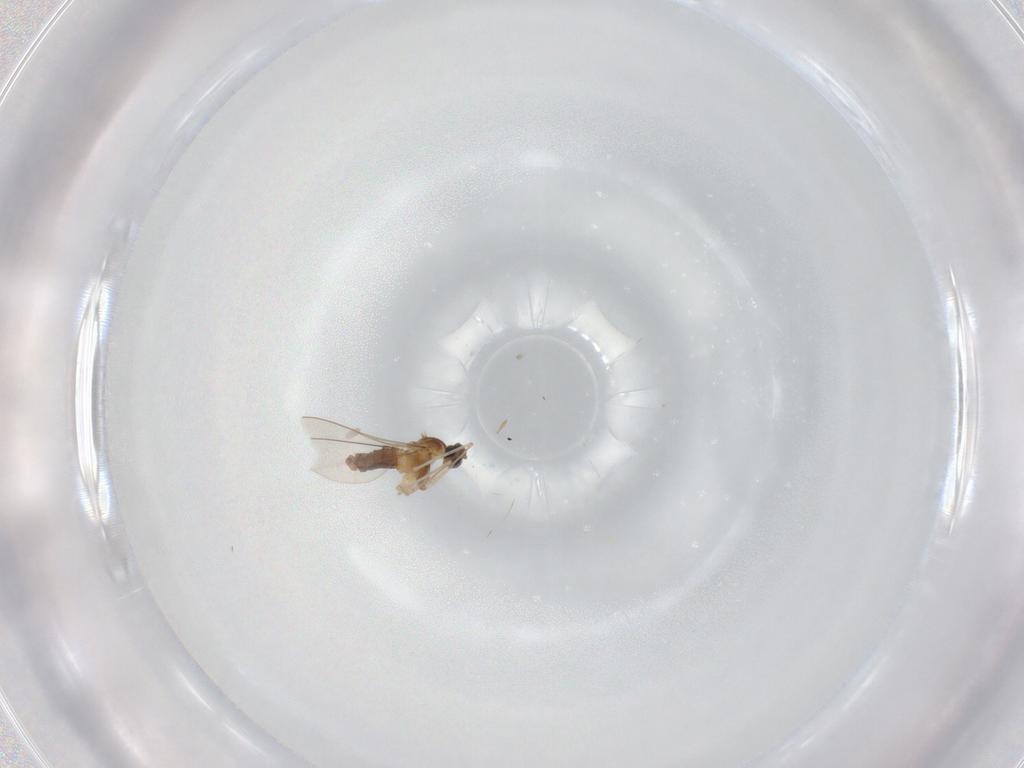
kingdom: Animalia
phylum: Arthropoda
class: Insecta
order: Diptera
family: Cecidomyiidae
